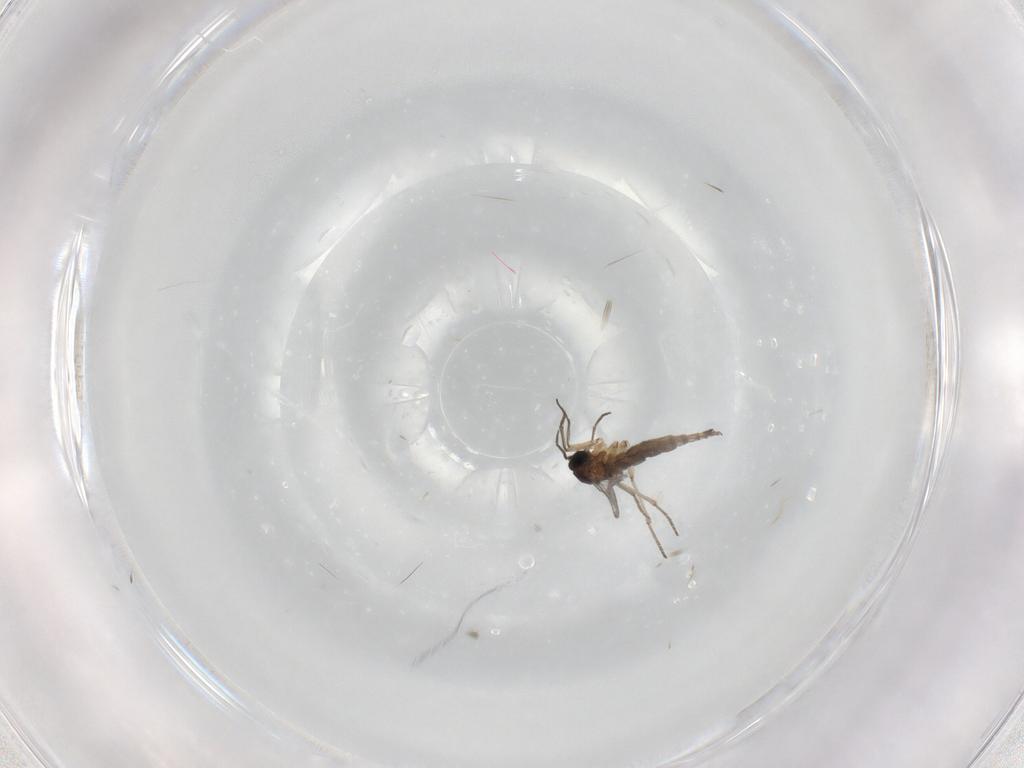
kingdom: Animalia
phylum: Arthropoda
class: Insecta
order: Diptera
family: Sciaridae
